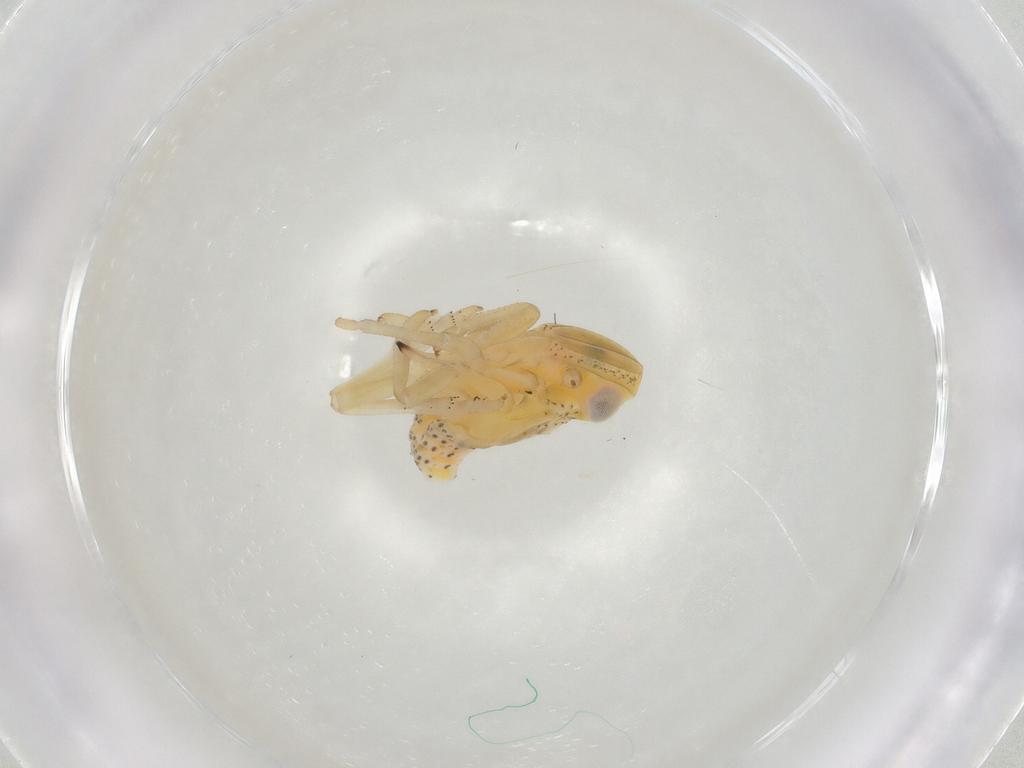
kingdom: Animalia
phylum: Arthropoda
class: Insecta
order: Hemiptera
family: Tropiduchidae
